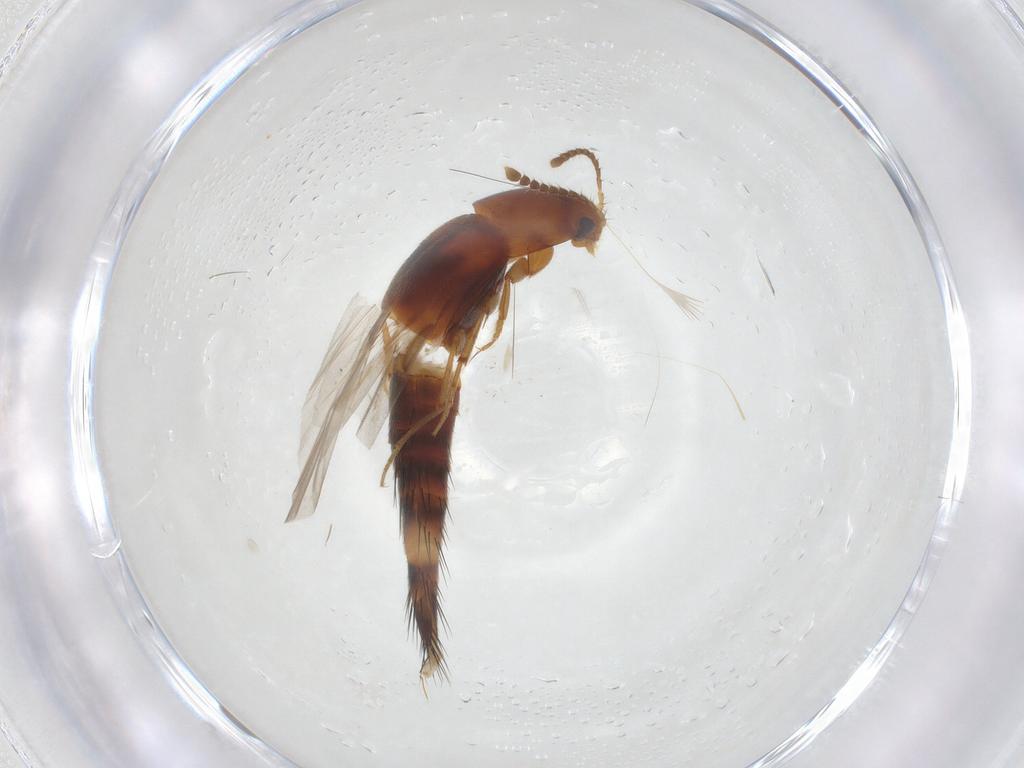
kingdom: Animalia
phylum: Arthropoda
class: Insecta
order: Coleoptera
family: Staphylinidae
